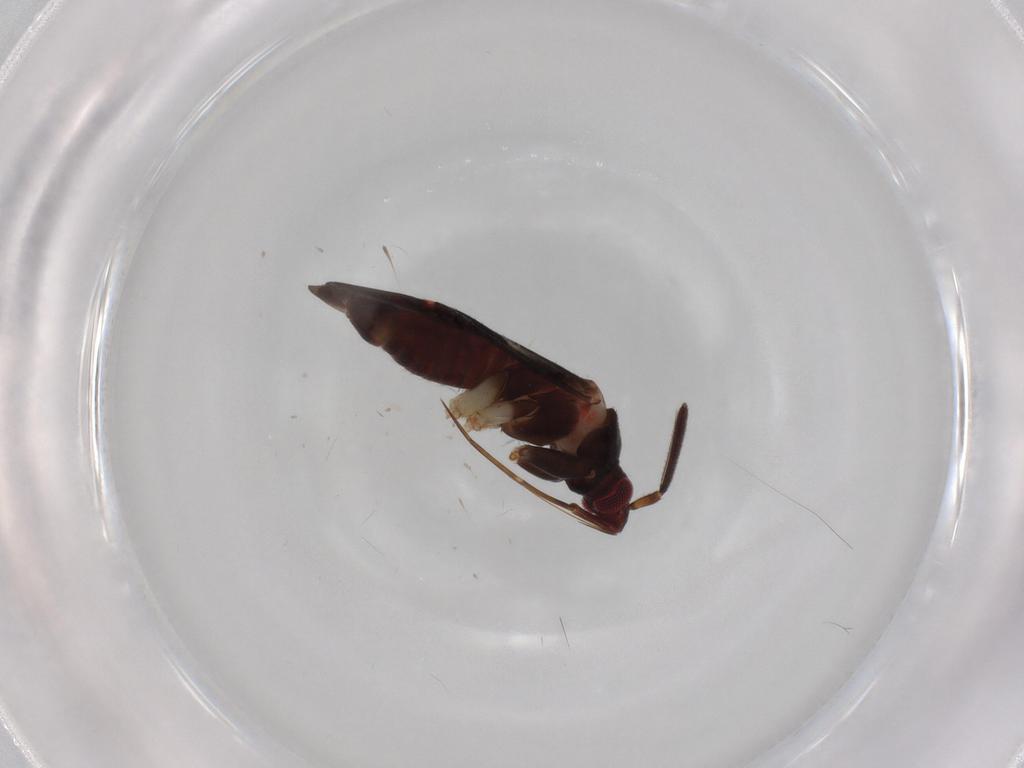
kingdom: Animalia
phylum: Arthropoda
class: Insecta
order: Hemiptera
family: Miridae
